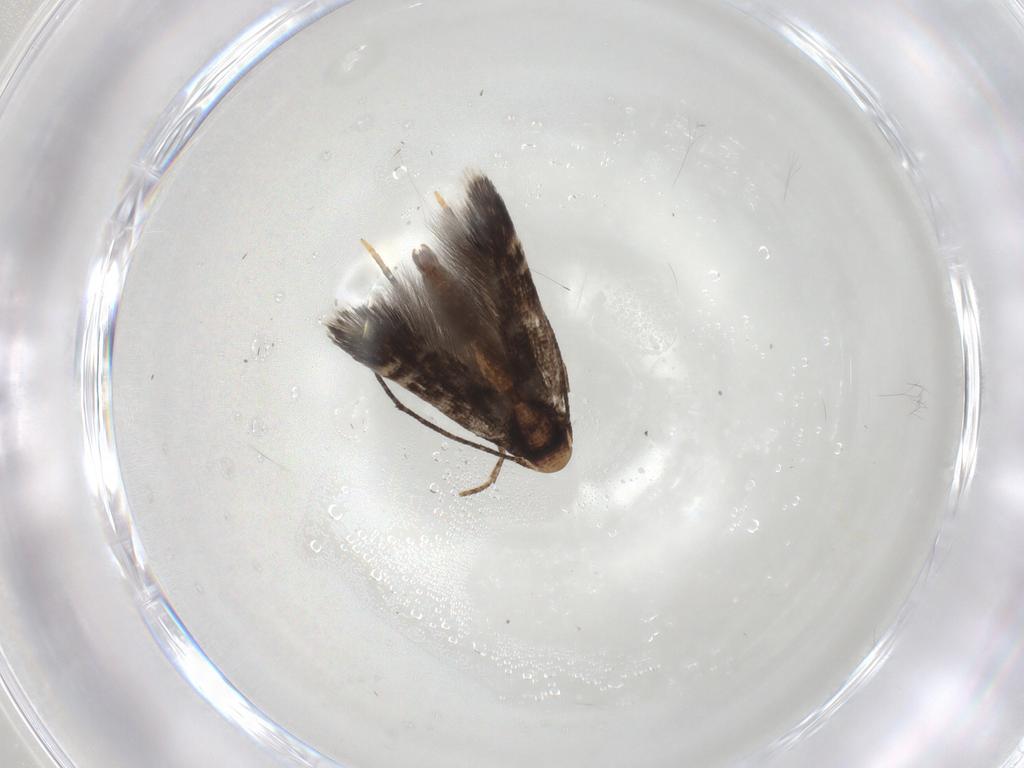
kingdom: Animalia
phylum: Arthropoda
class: Insecta
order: Lepidoptera
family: Momphidae
